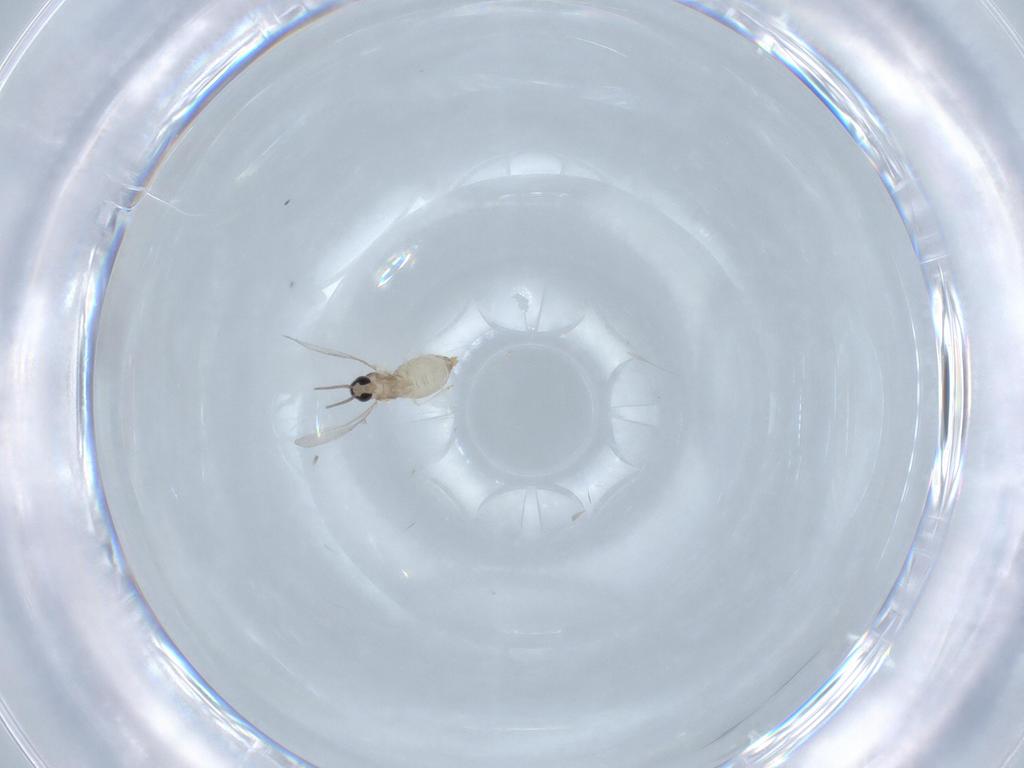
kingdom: Animalia
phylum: Arthropoda
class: Insecta
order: Diptera
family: Cecidomyiidae
